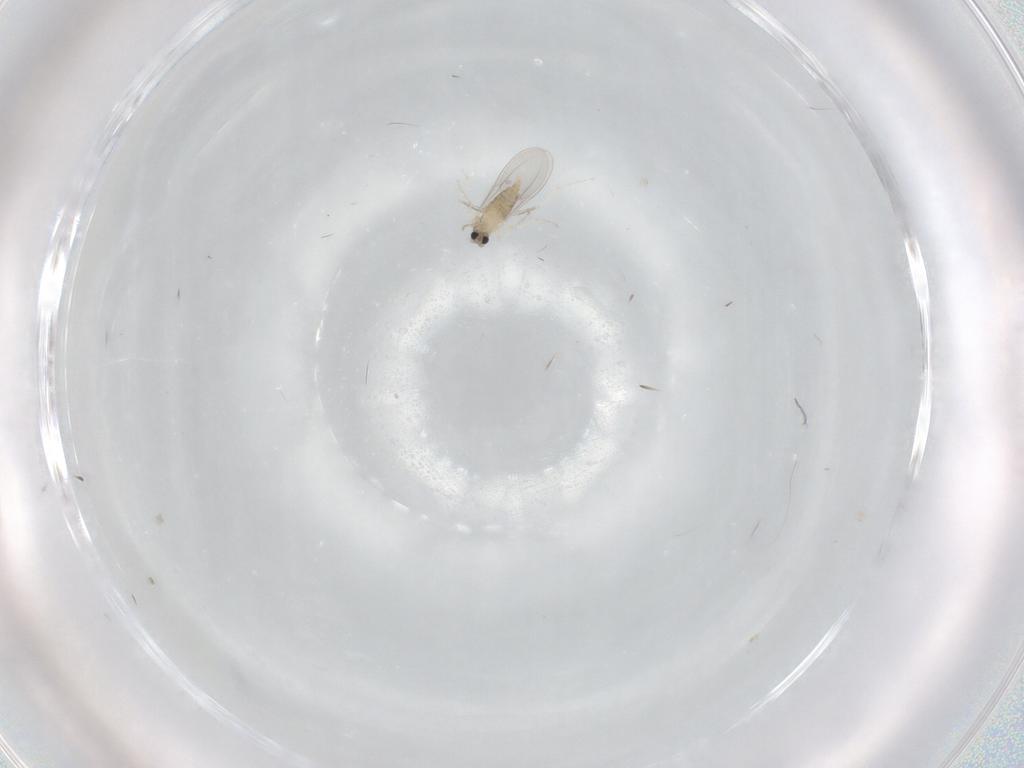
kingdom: Animalia
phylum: Arthropoda
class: Insecta
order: Diptera
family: Cecidomyiidae
